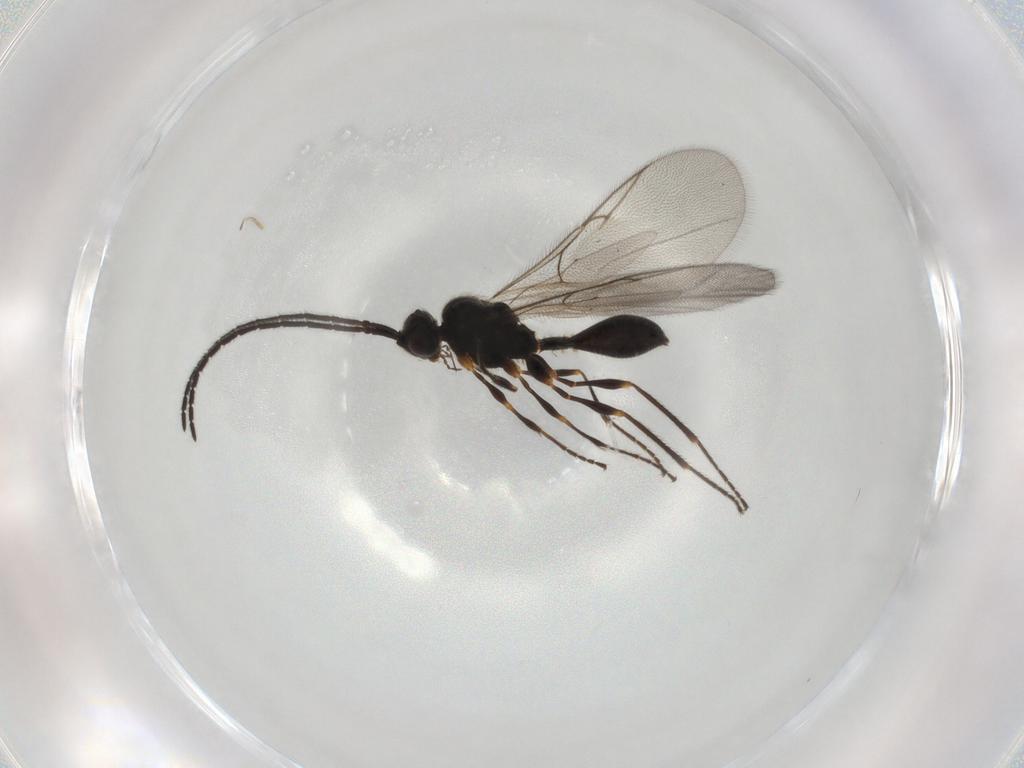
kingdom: Animalia
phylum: Arthropoda
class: Insecta
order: Hymenoptera
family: Diapriidae
